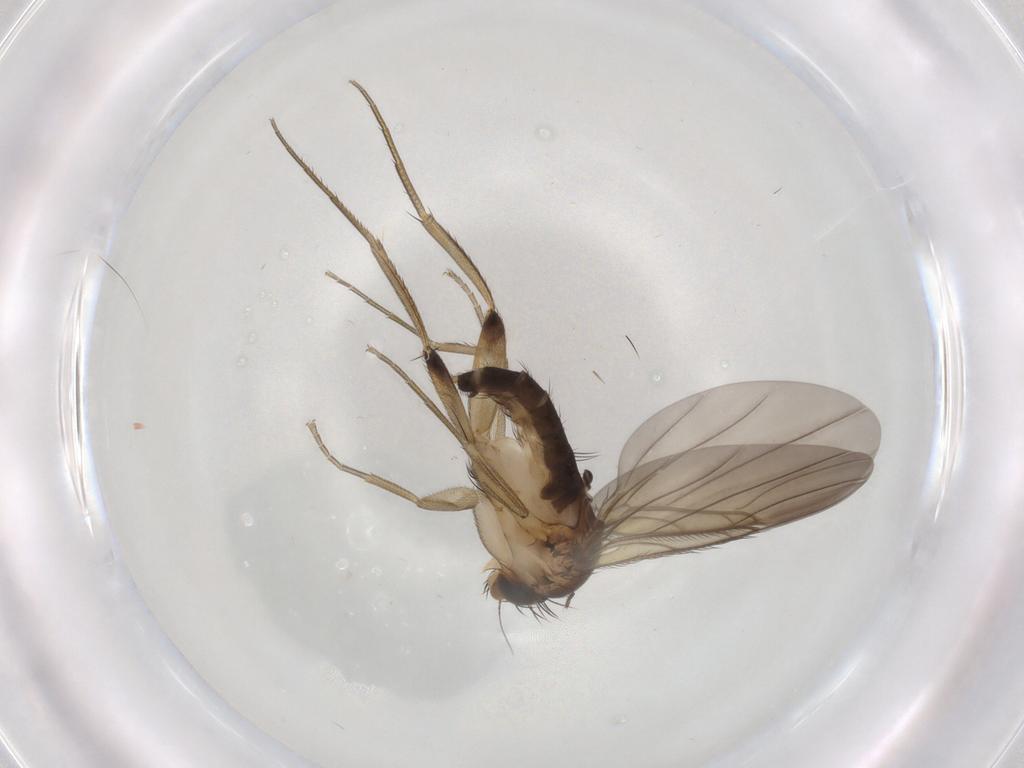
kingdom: Animalia
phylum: Arthropoda
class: Insecta
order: Diptera
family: Phoridae
